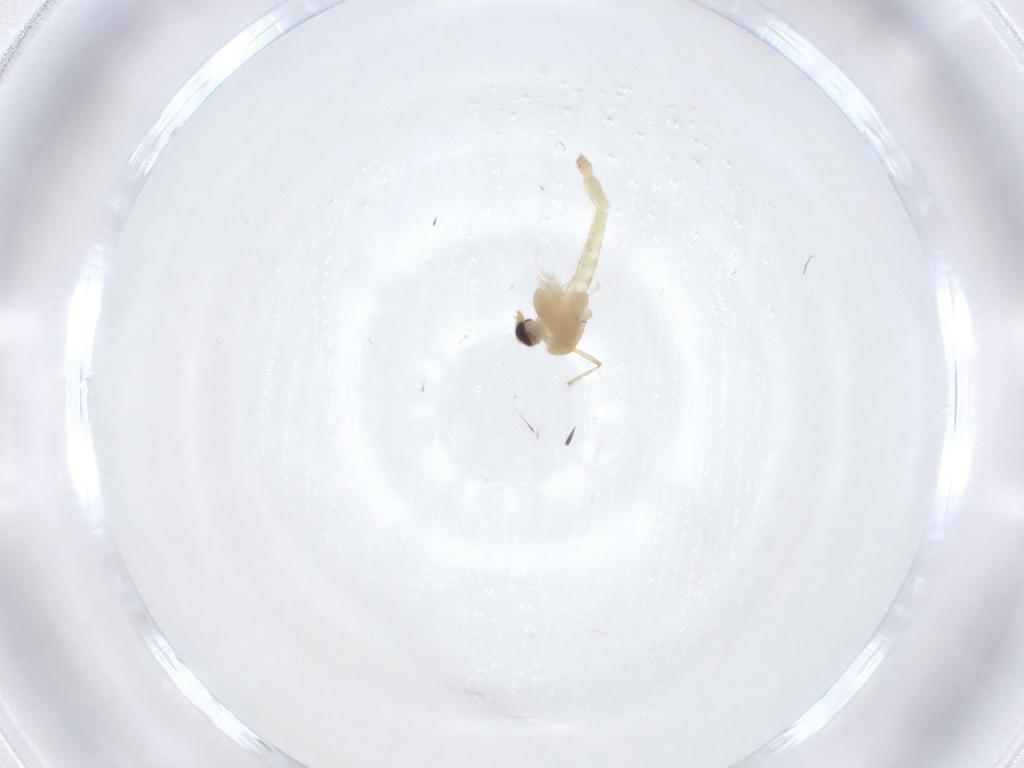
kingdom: Animalia
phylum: Arthropoda
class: Insecta
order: Diptera
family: Chironomidae
